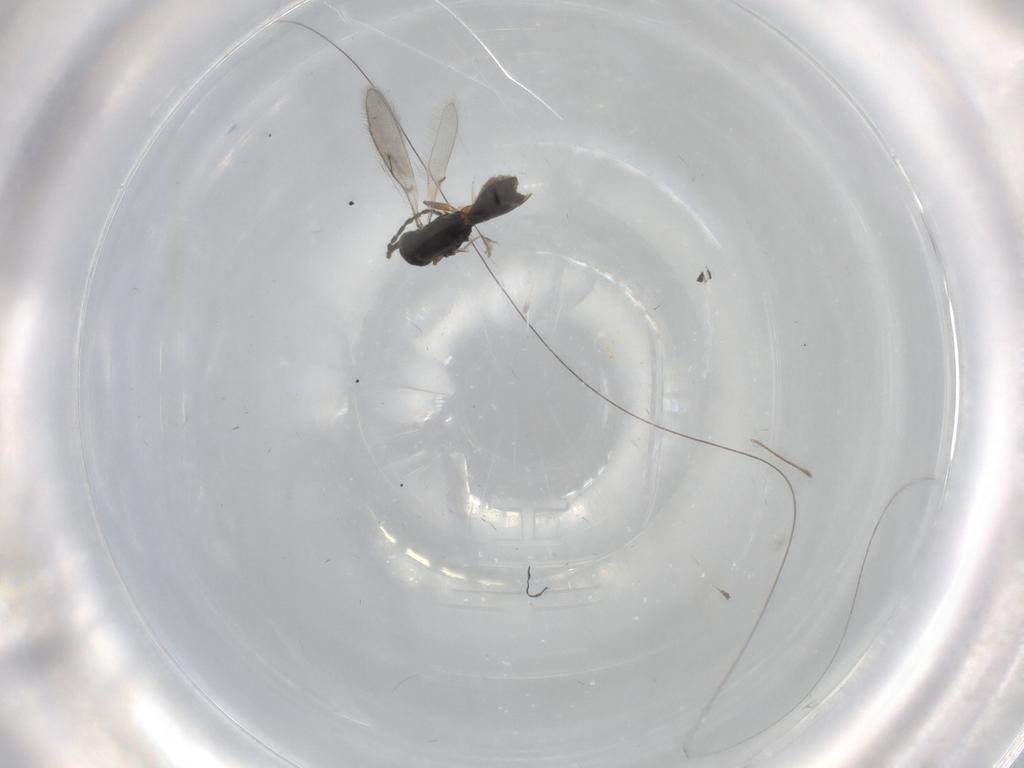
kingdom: Animalia
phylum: Arthropoda
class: Insecta
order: Hymenoptera
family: Scelionidae
